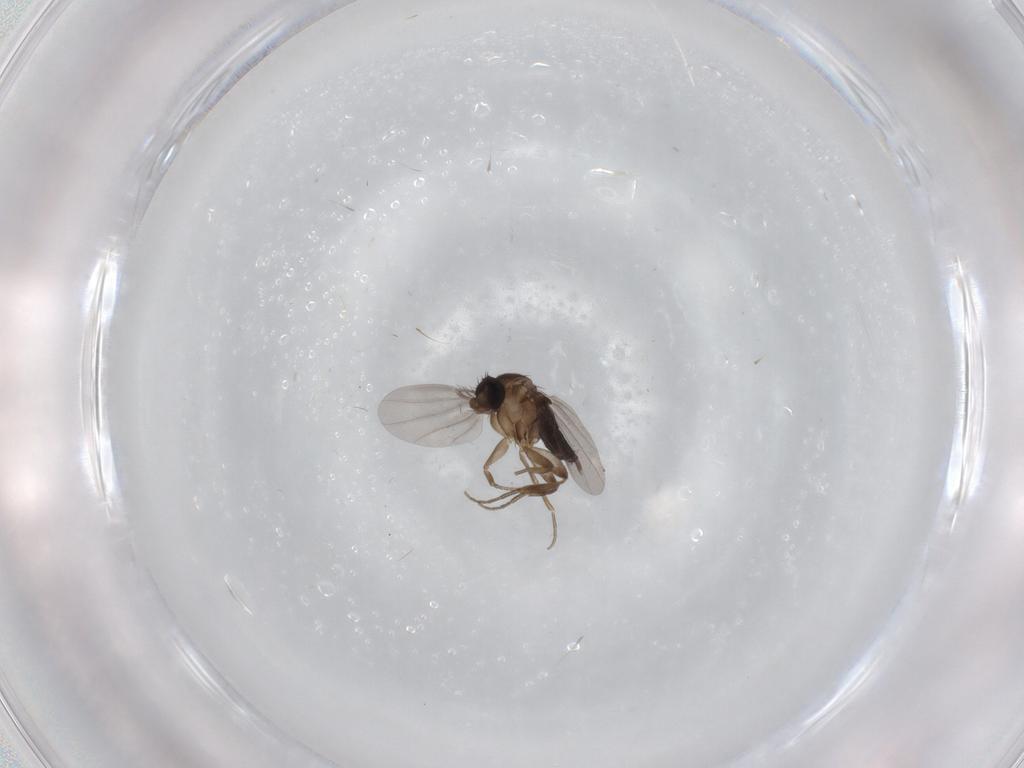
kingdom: Animalia
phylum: Arthropoda
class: Insecta
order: Diptera
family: Phoridae
